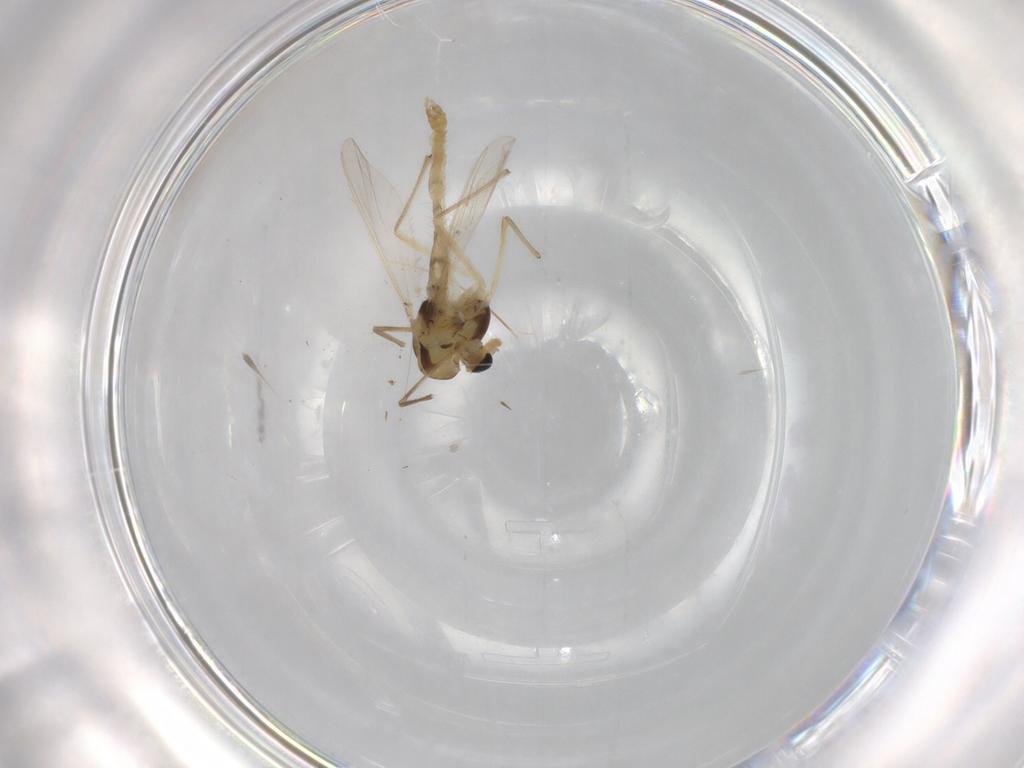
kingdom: Animalia
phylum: Arthropoda
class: Insecta
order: Diptera
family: Chironomidae
